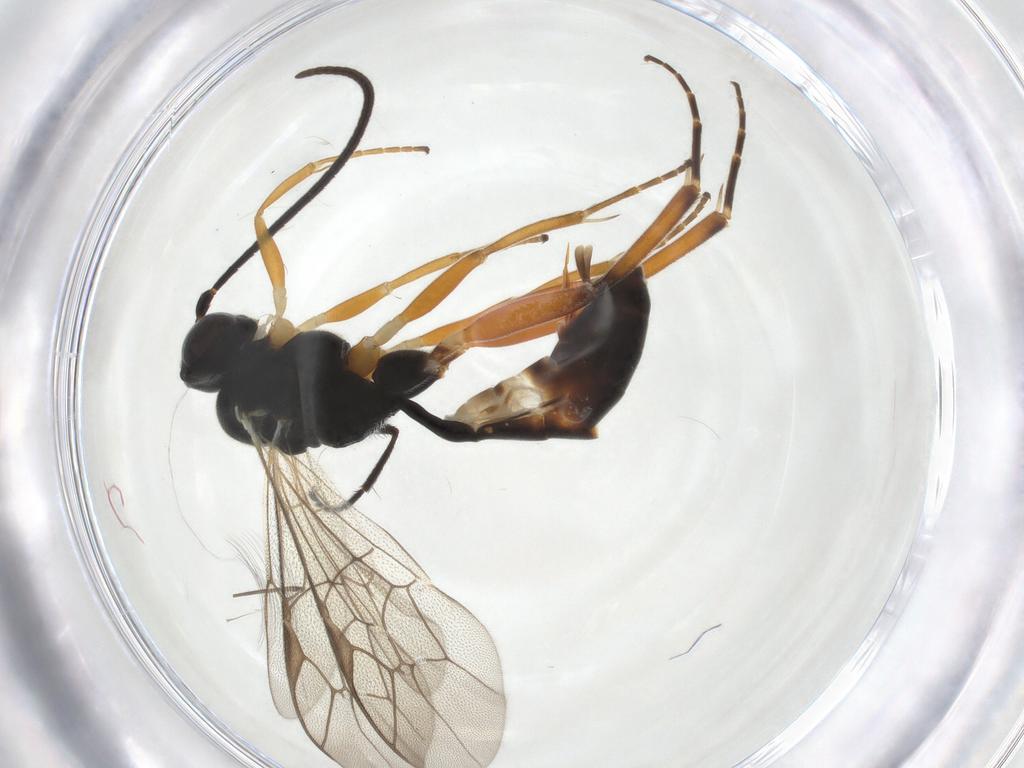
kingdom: Animalia
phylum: Arthropoda
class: Insecta
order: Hymenoptera
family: Ichneumonidae
